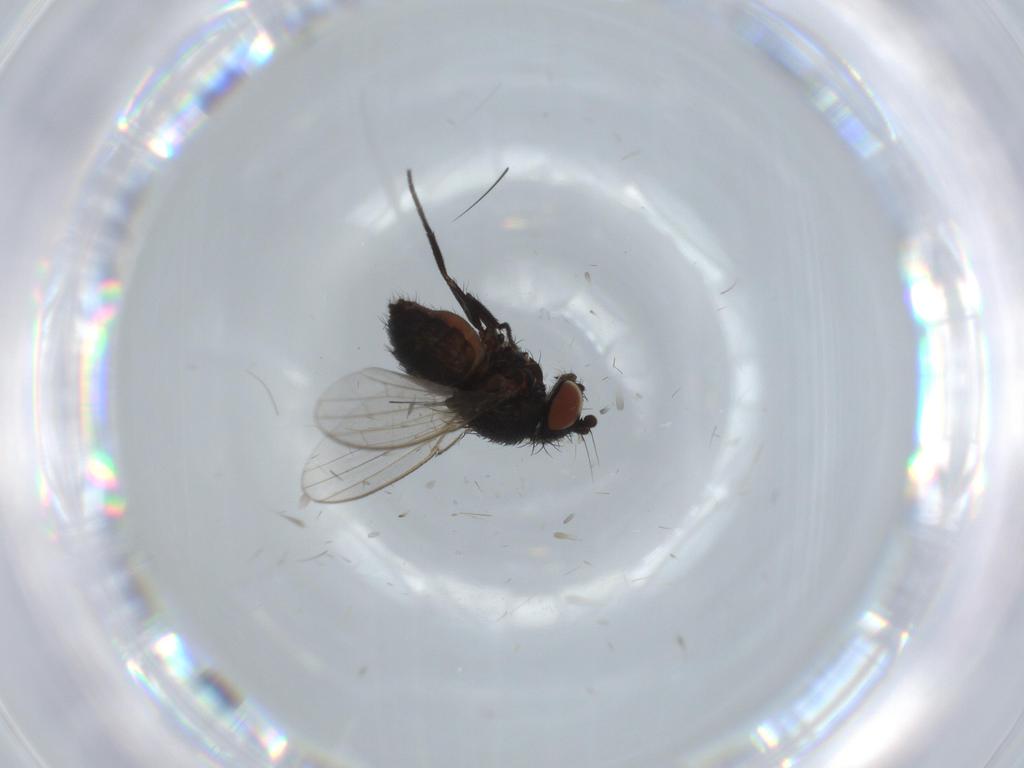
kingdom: Animalia
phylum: Arthropoda
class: Insecta
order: Diptera
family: Milichiidae
